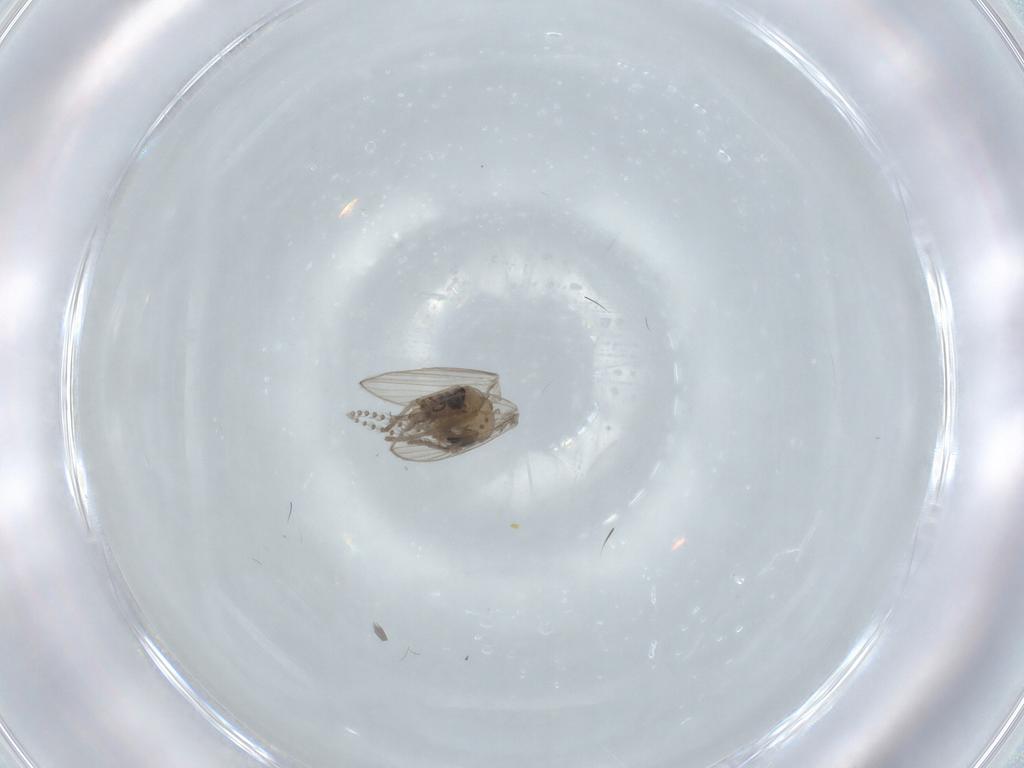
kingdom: Animalia
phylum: Arthropoda
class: Insecta
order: Diptera
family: Psychodidae
